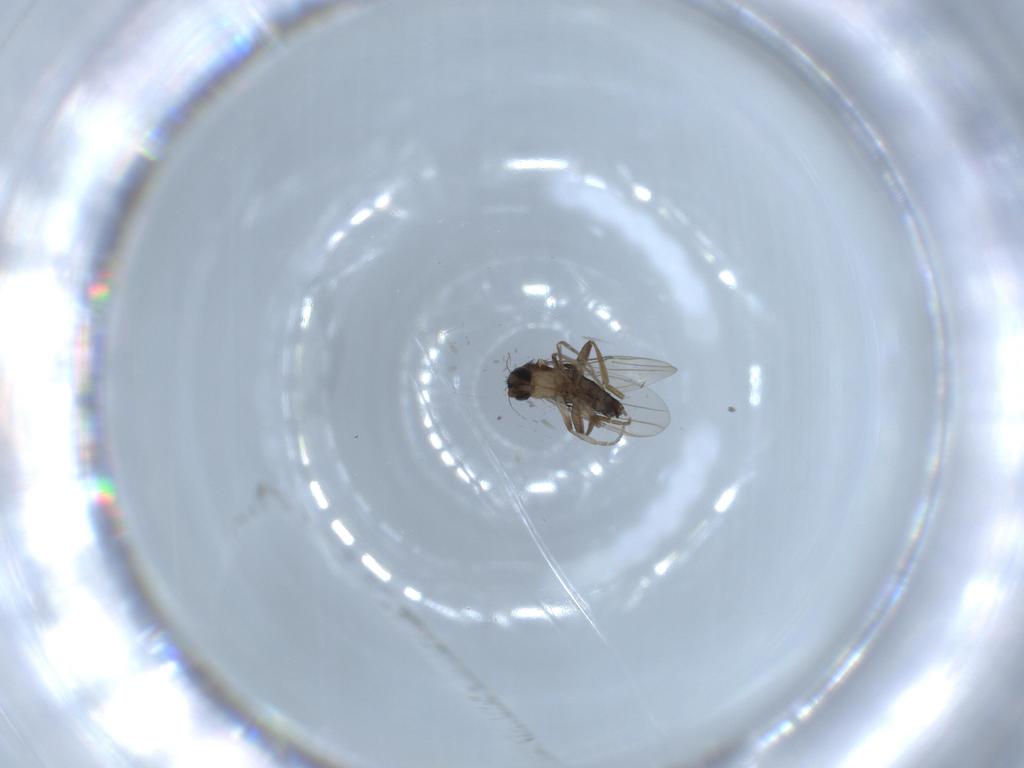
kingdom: Animalia
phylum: Arthropoda
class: Insecta
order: Diptera
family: Phoridae
